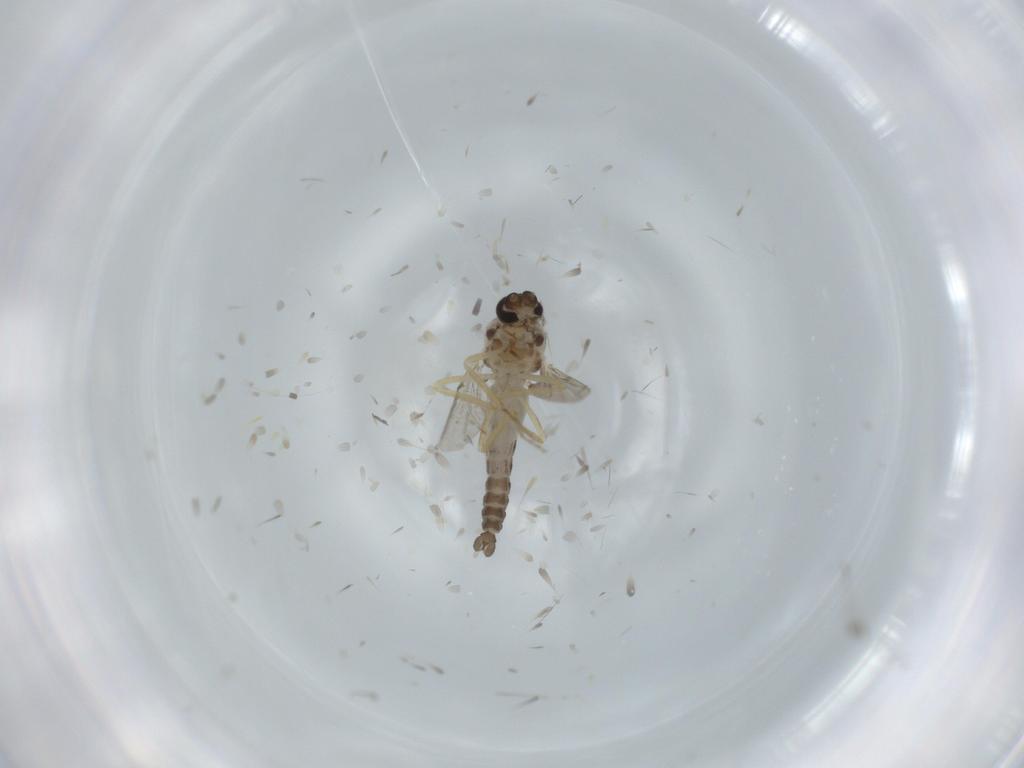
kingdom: Animalia
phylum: Arthropoda
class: Insecta
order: Diptera
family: Ceratopogonidae
